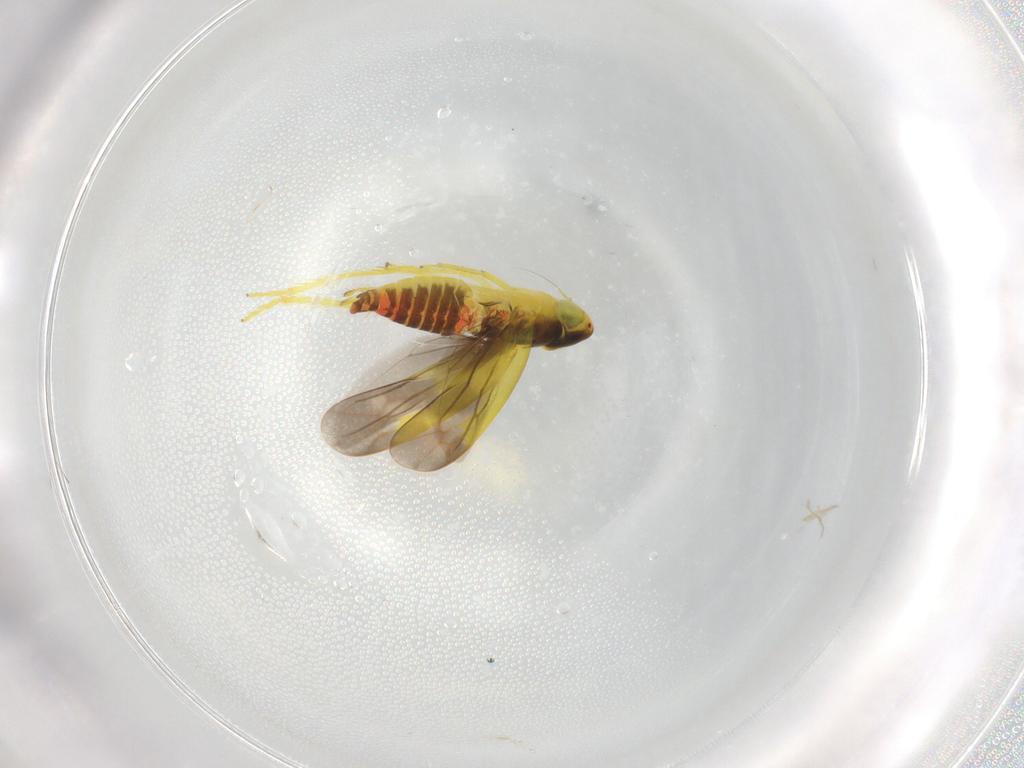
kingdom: Animalia
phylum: Arthropoda
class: Insecta
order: Hemiptera
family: Cicadellidae
